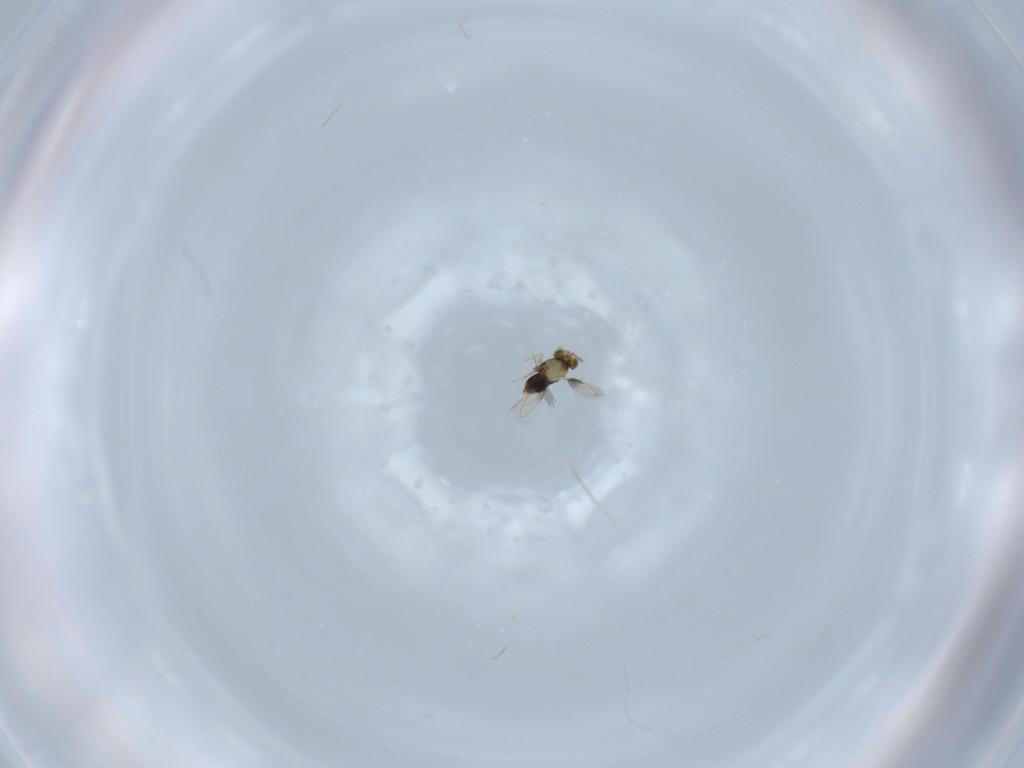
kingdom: Animalia
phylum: Arthropoda
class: Insecta
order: Hymenoptera
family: Aphelinidae
